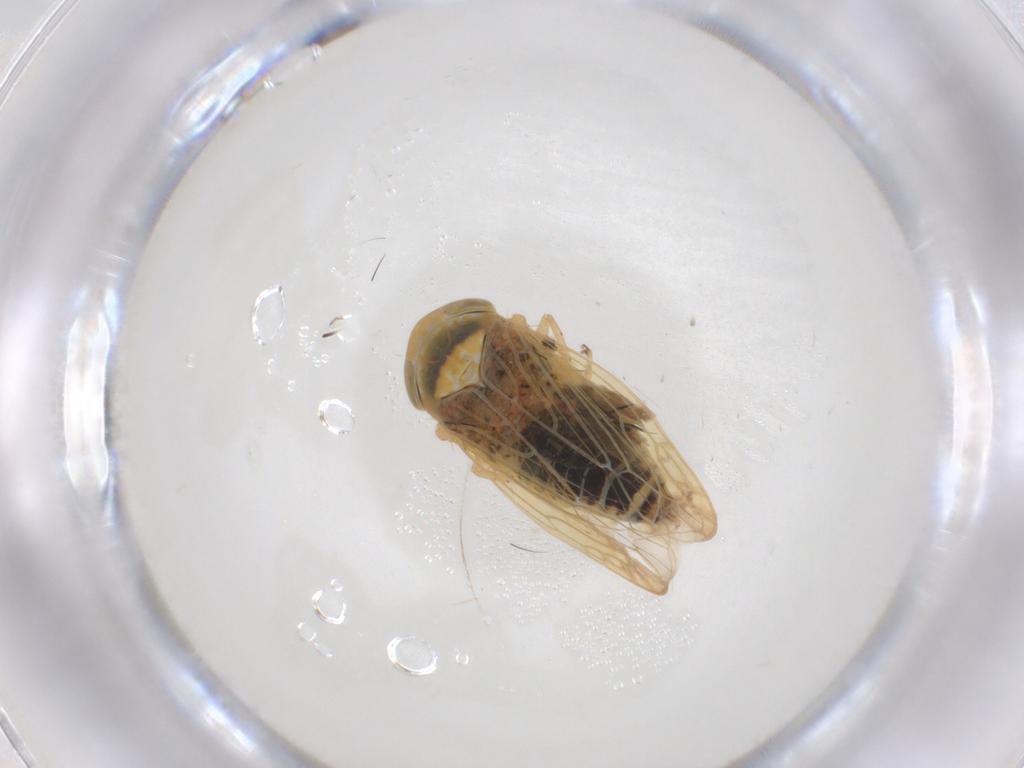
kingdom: Animalia
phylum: Arthropoda
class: Insecta
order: Hemiptera
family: Cicadellidae
